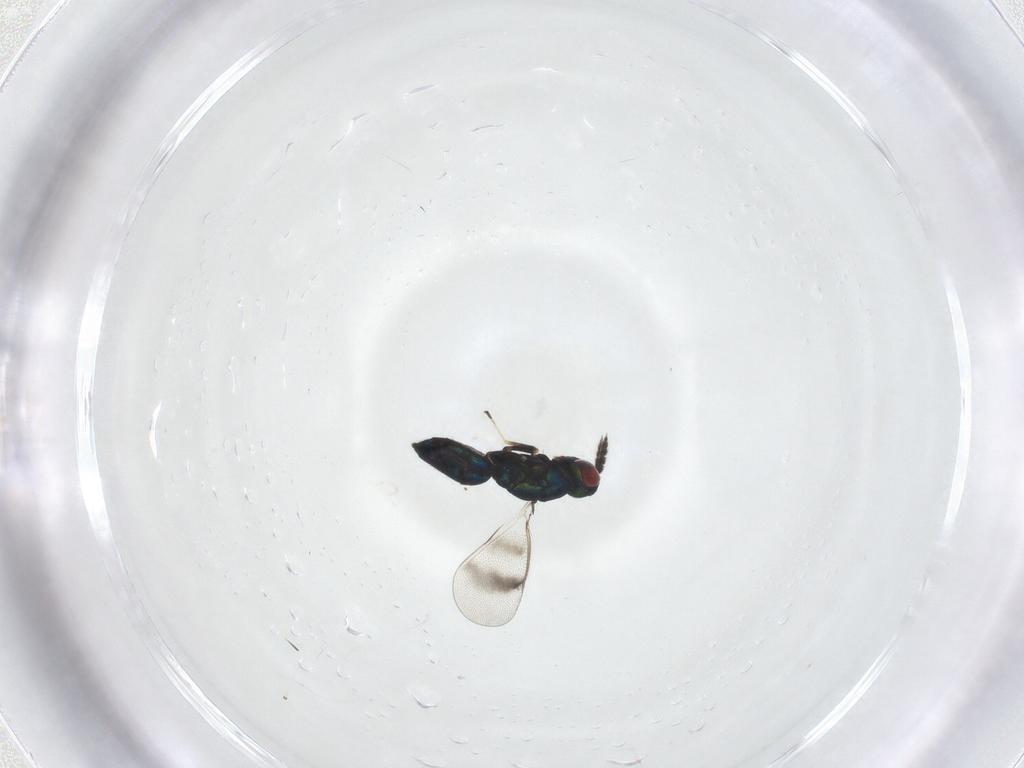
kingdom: Animalia
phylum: Arthropoda
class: Insecta
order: Hymenoptera
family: Eulophidae
